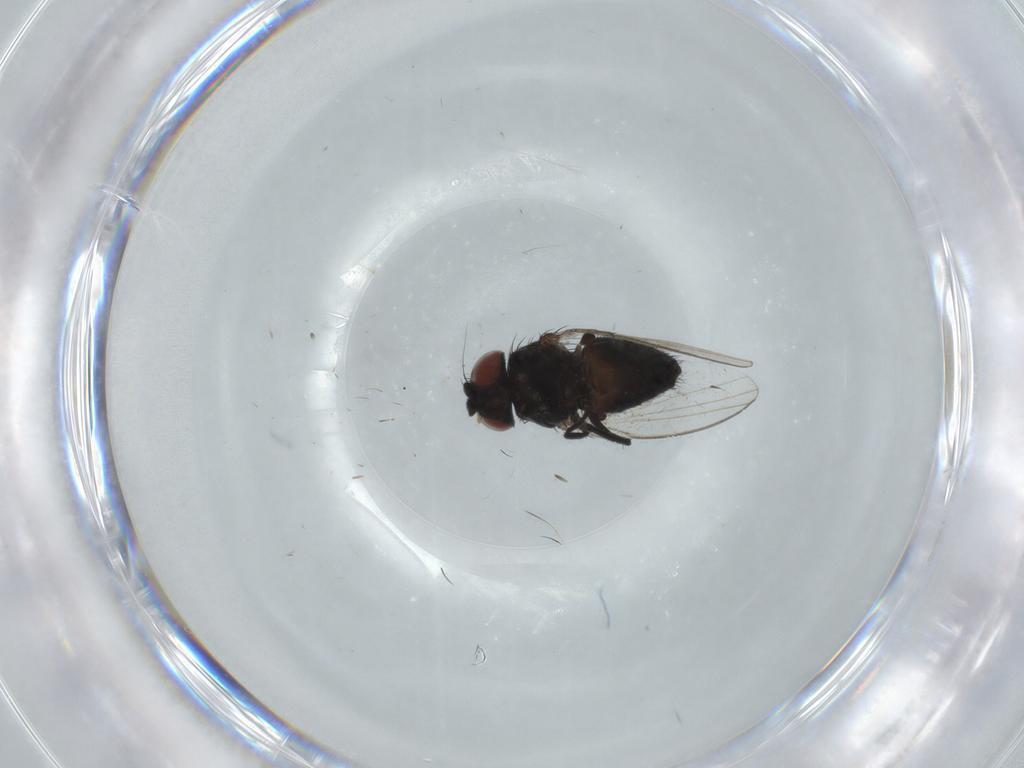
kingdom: Animalia
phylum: Arthropoda
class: Insecta
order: Diptera
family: Milichiidae
